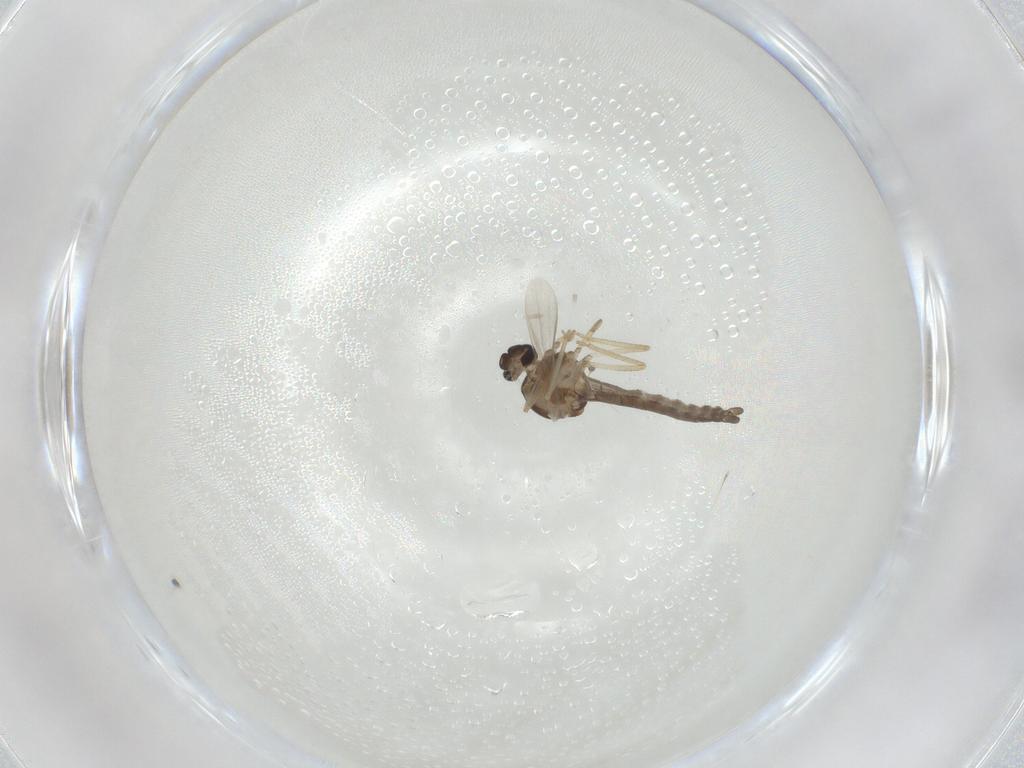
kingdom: Animalia
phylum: Arthropoda
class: Insecta
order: Diptera
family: Ceratopogonidae
